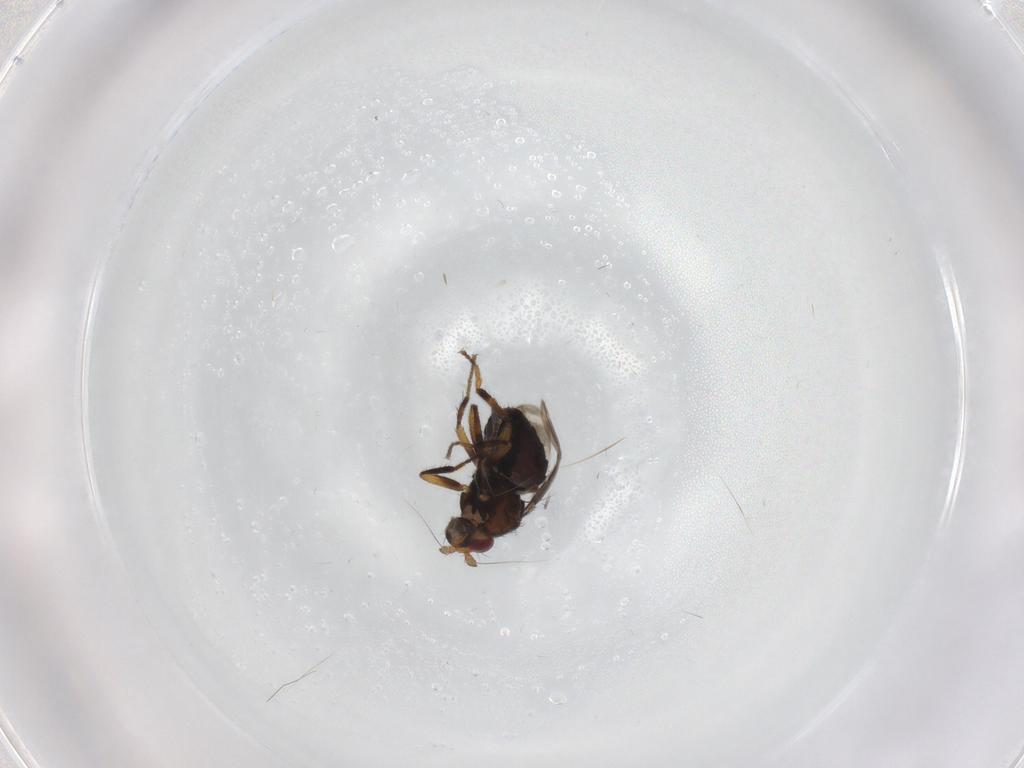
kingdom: Animalia
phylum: Arthropoda
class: Insecta
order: Diptera
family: Sphaeroceridae
